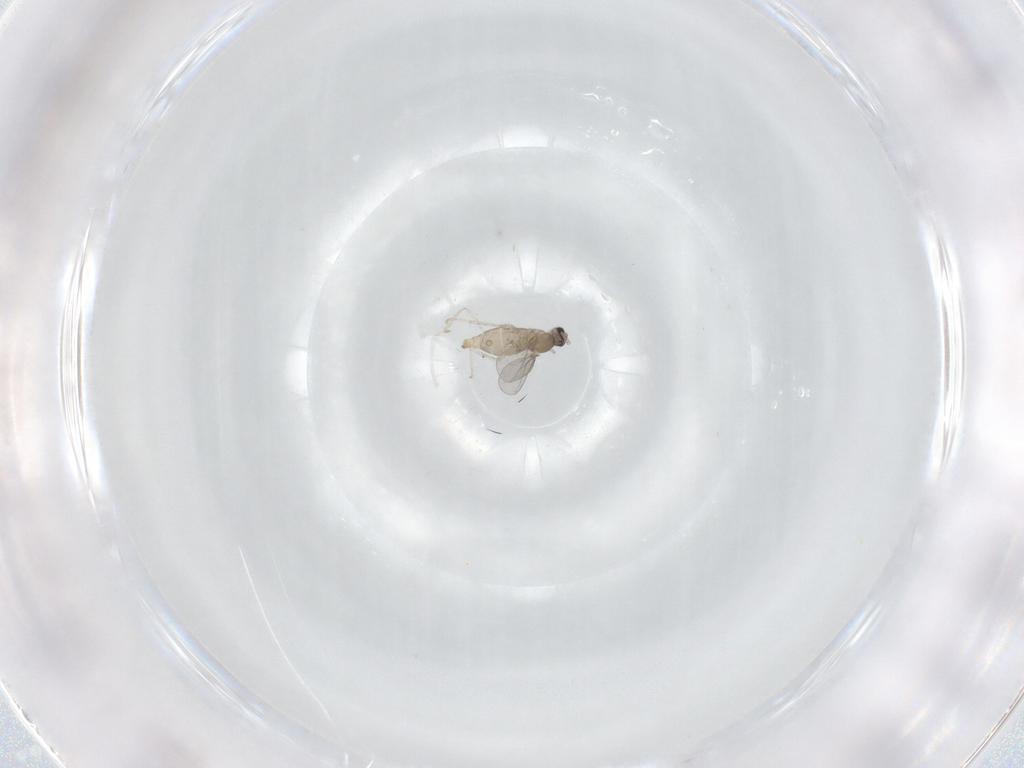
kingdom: Animalia
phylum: Arthropoda
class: Insecta
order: Diptera
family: Cecidomyiidae
